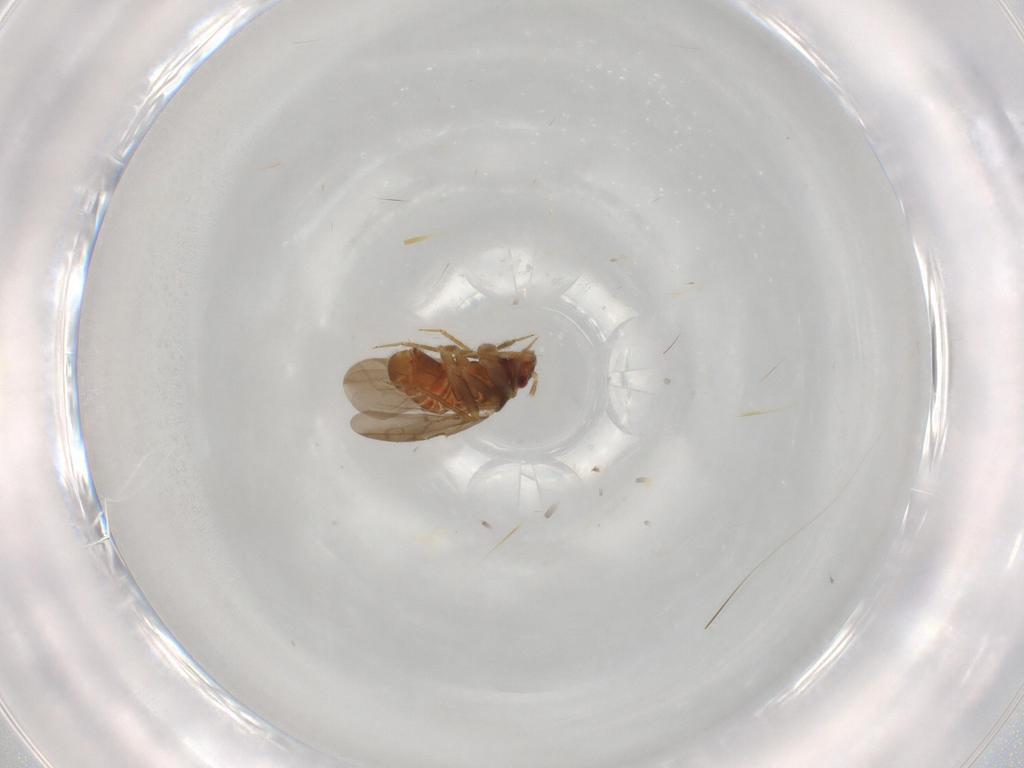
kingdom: Animalia
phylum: Arthropoda
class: Insecta
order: Hemiptera
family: Ceratocombidae
